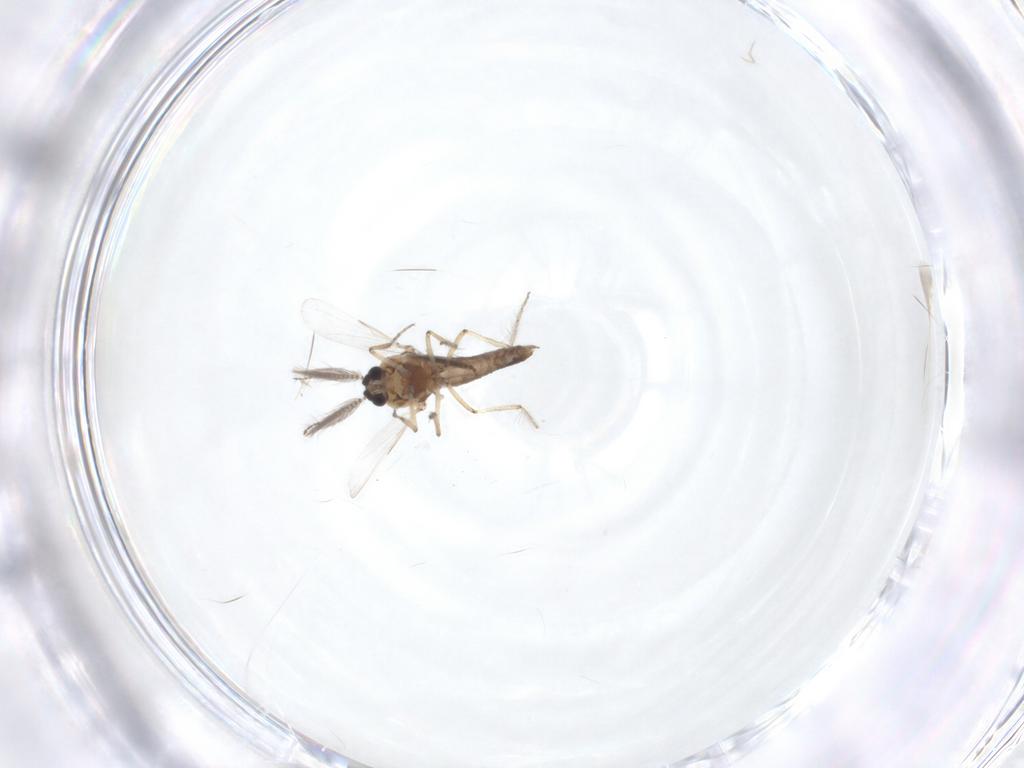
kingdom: Animalia
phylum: Arthropoda
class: Insecta
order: Diptera
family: Ceratopogonidae
